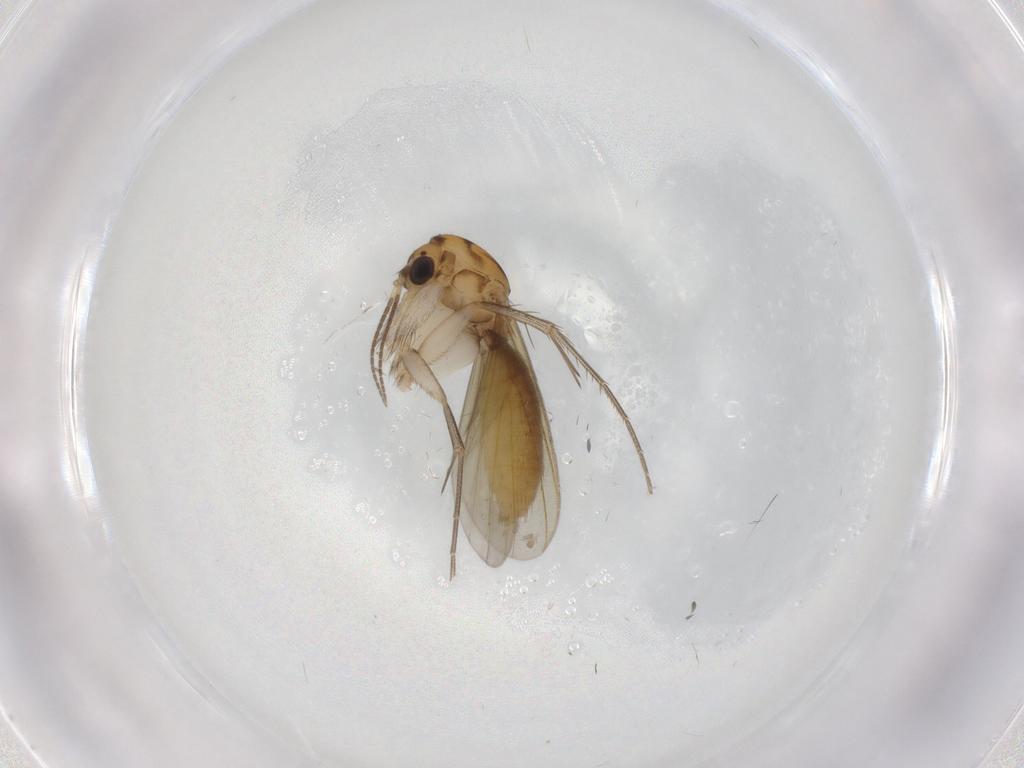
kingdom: Animalia
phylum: Arthropoda
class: Insecta
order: Diptera
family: Mycetophilidae
